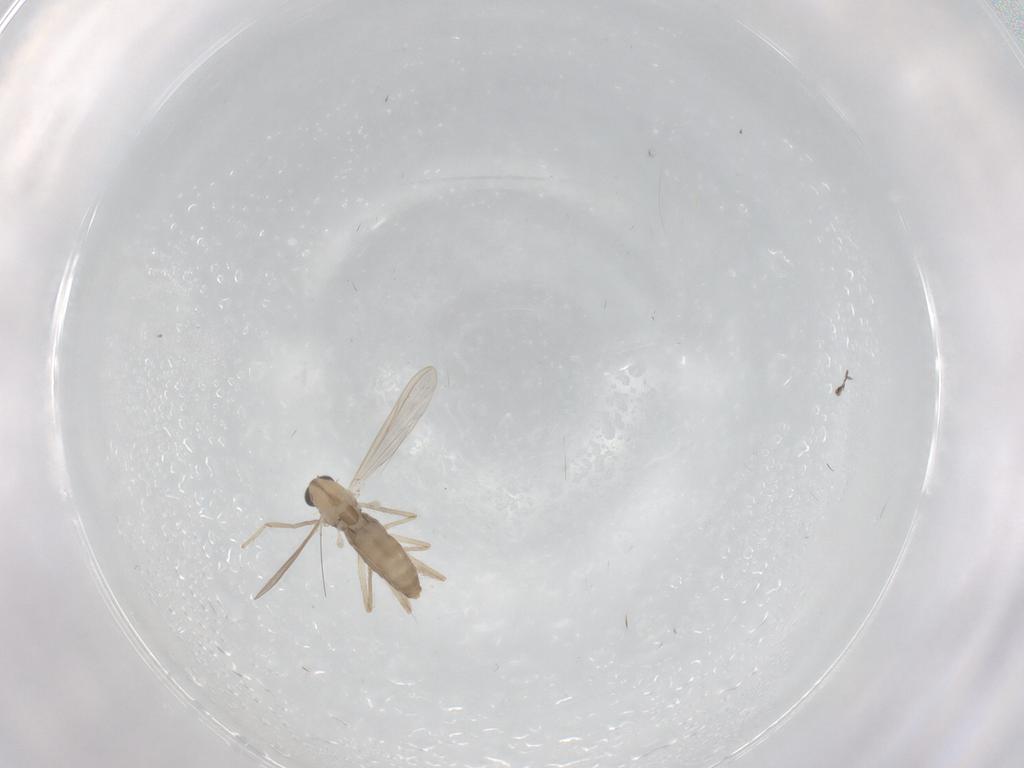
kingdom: Animalia
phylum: Arthropoda
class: Insecta
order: Diptera
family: Chironomidae
